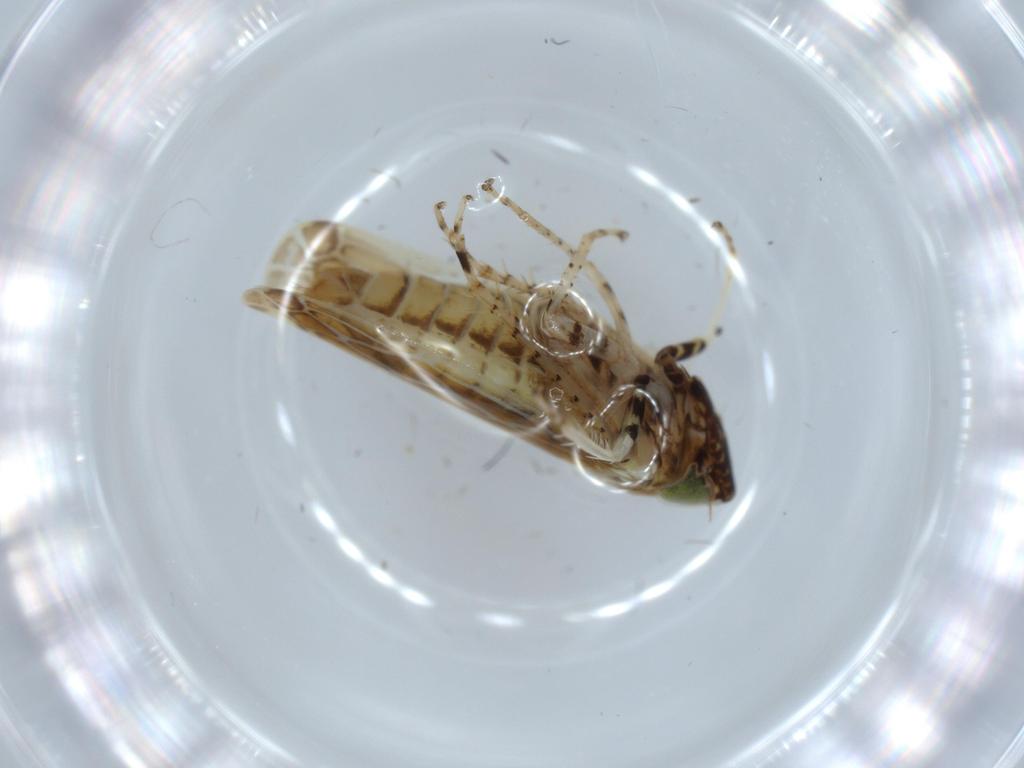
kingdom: Animalia
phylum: Arthropoda
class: Insecta
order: Hemiptera
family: Cicadellidae
